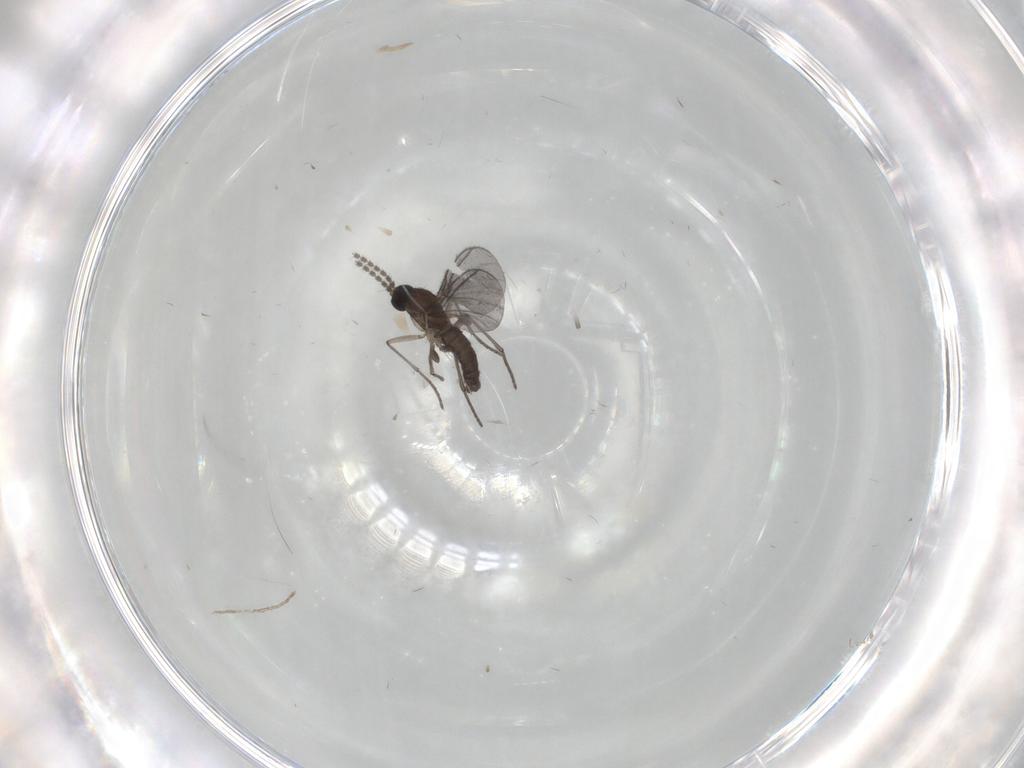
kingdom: Animalia
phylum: Arthropoda
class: Insecta
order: Diptera
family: Sciaridae
